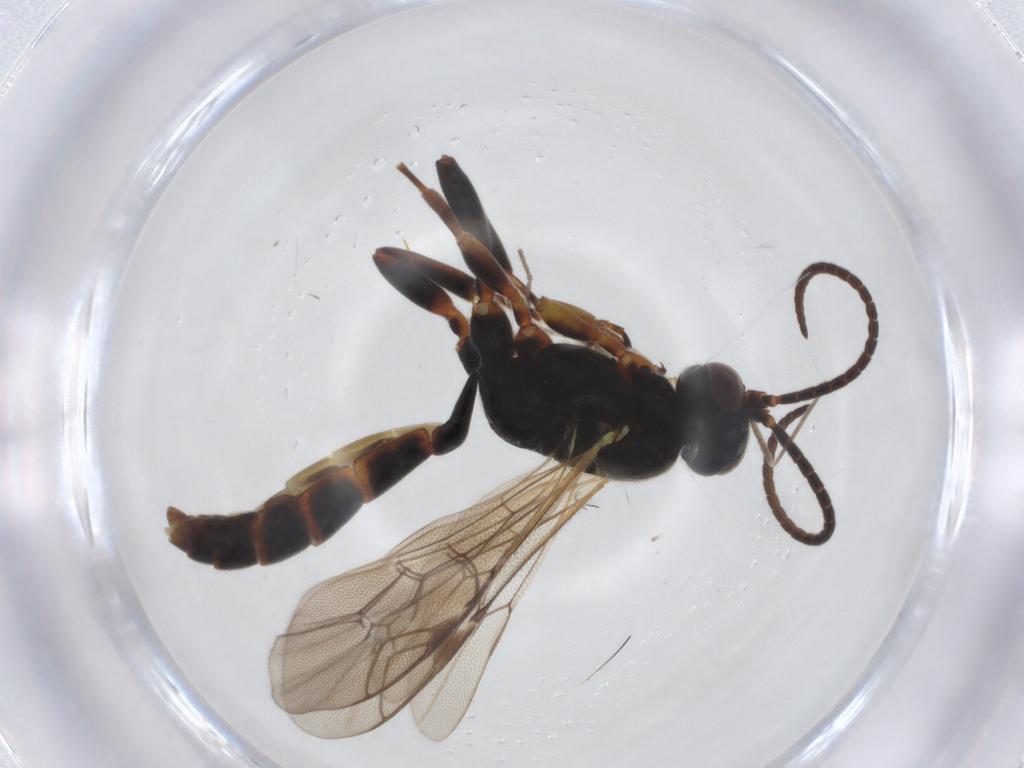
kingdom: Animalia
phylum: Arthropoda
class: Insecta
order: Hymenoptera
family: Ichneumonidae
